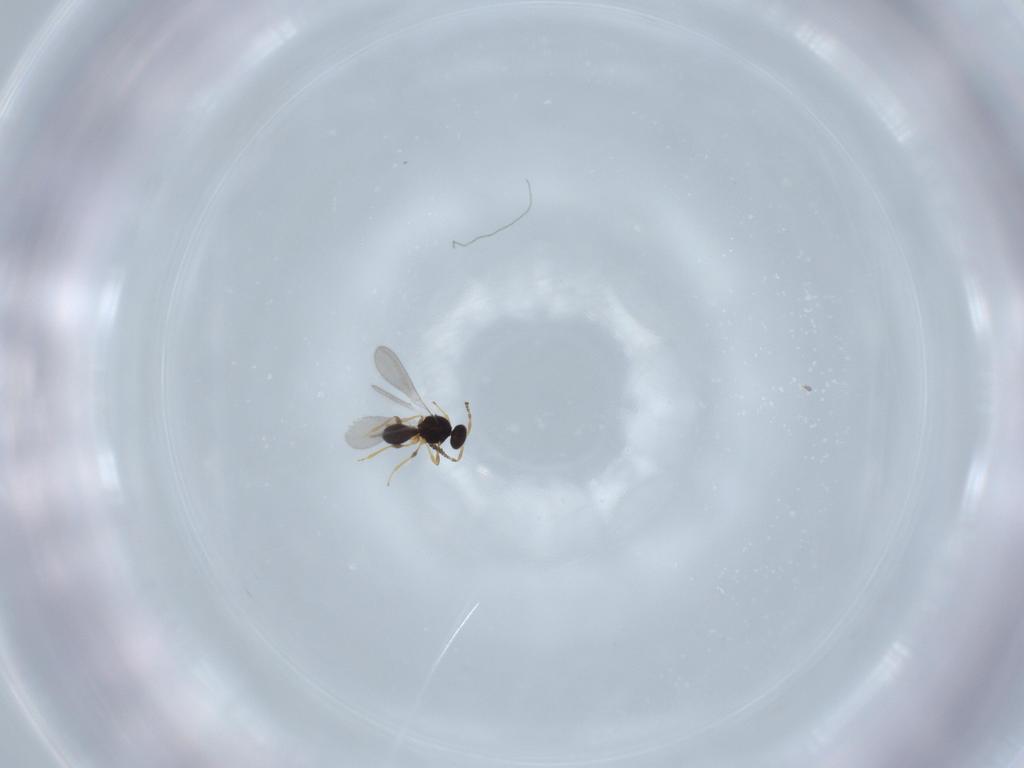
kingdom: Animalia
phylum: Arthropoda
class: Insecta
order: Hymenoptera
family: Platygastridae
